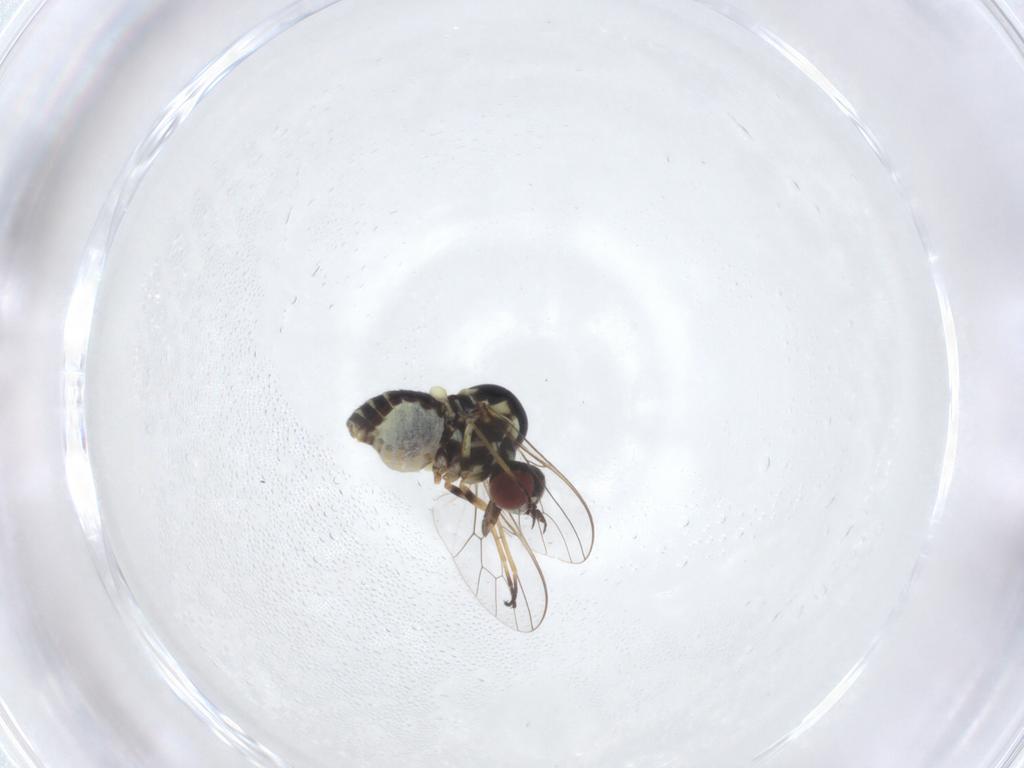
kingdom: Animalia
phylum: Arthropoda
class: Insecta
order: Diptera
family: Bombyliidae
